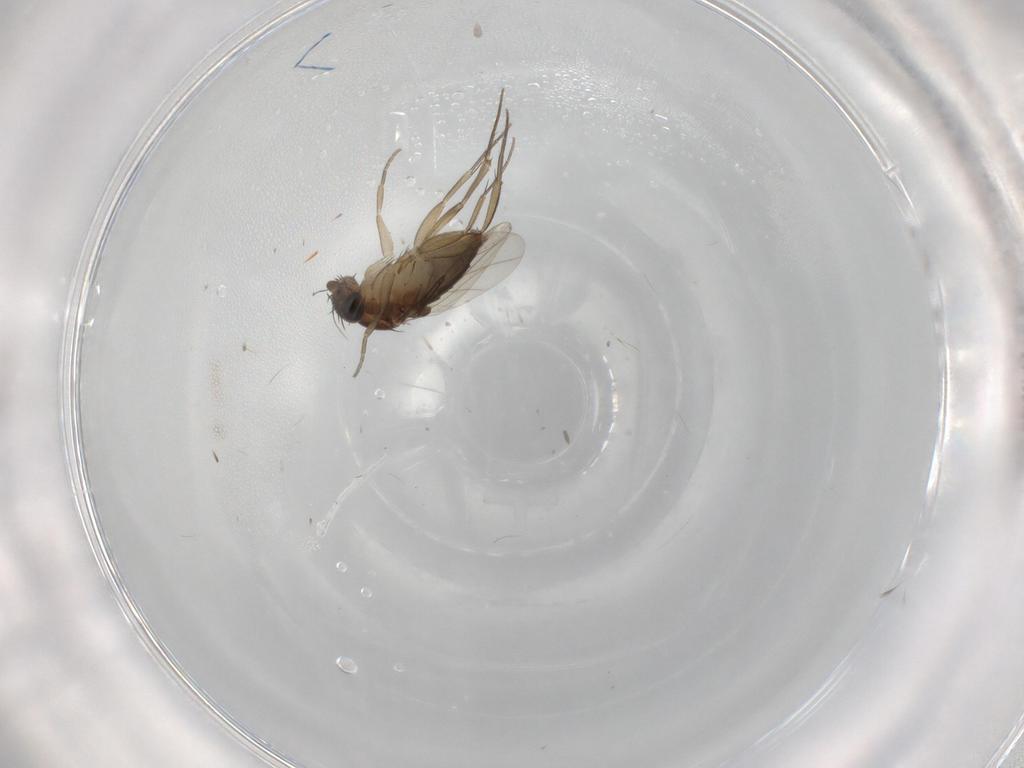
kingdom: Animalia
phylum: Arthropoda
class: Insecta
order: Diptera
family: Phoridae
